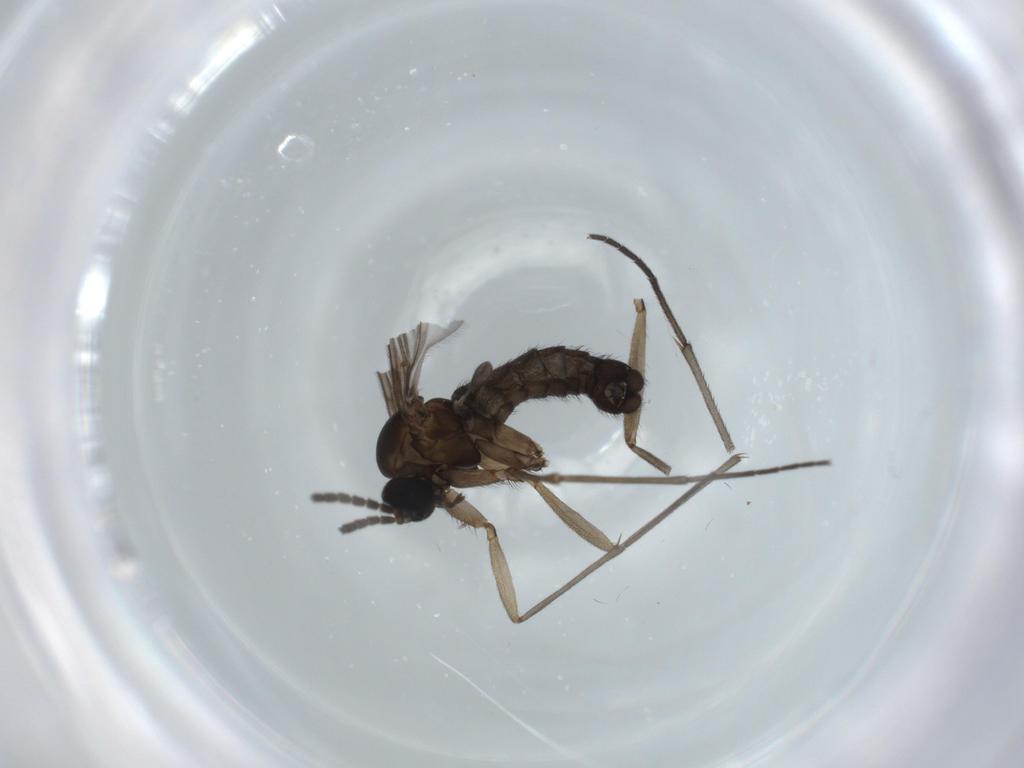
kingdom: Animalia
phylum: Arthropoda
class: Insecta
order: Diptera
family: Sciaridae
